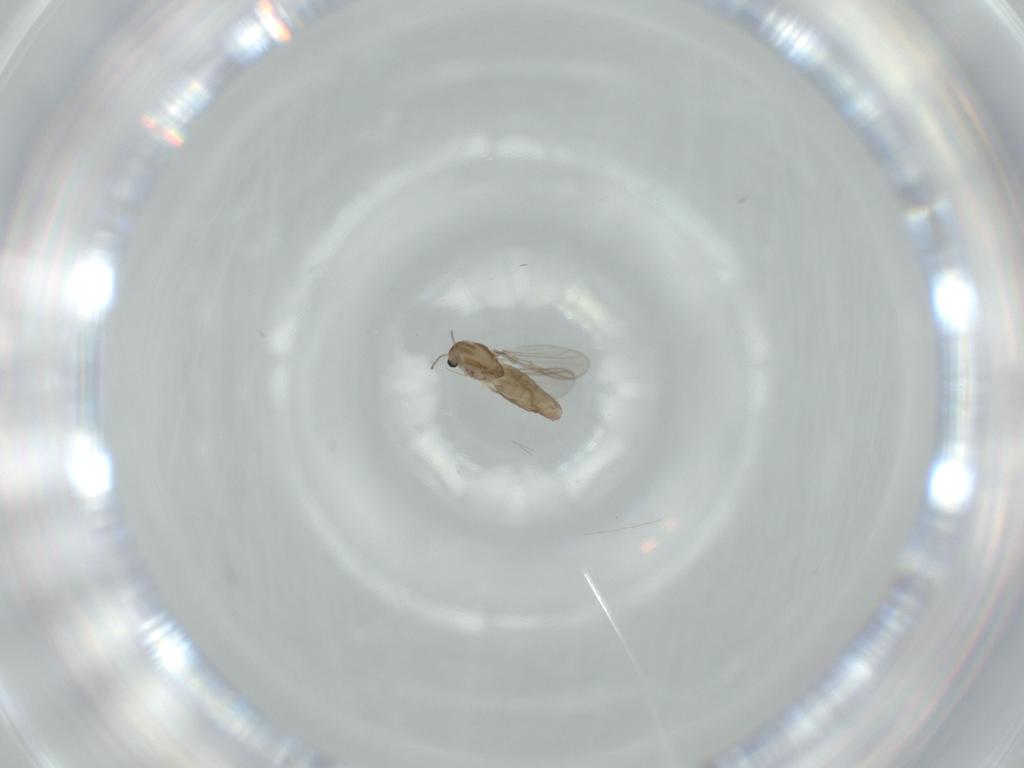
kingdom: Animalia
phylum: Arthropoda
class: Insecta
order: Diptera
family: Chironomidae
